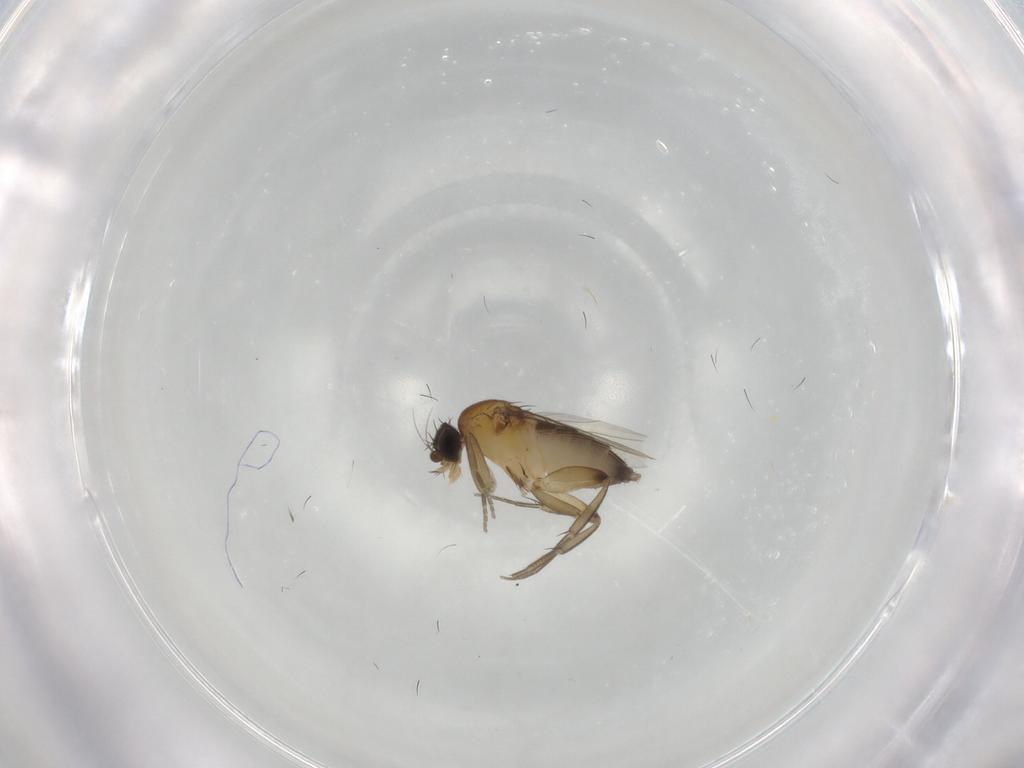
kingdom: Animalia
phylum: Arthropoda
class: Insecta
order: Diptera
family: Phoridae
